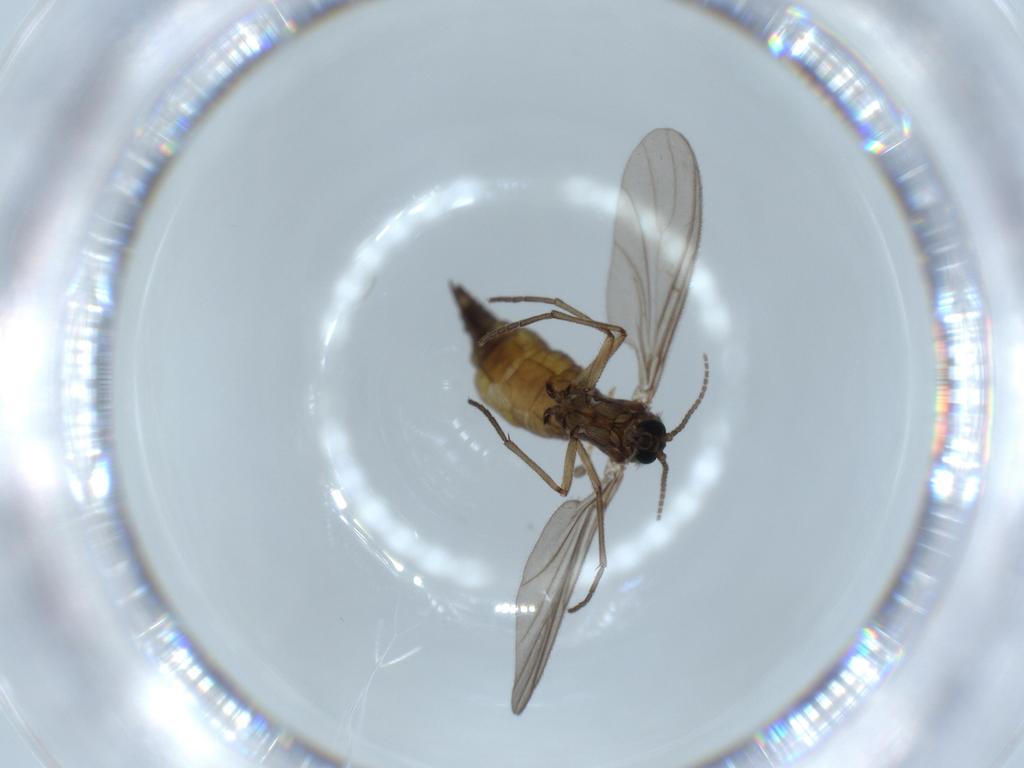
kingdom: Animalia
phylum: Arthropoda
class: Insecta
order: Diptera
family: Sciaridae
